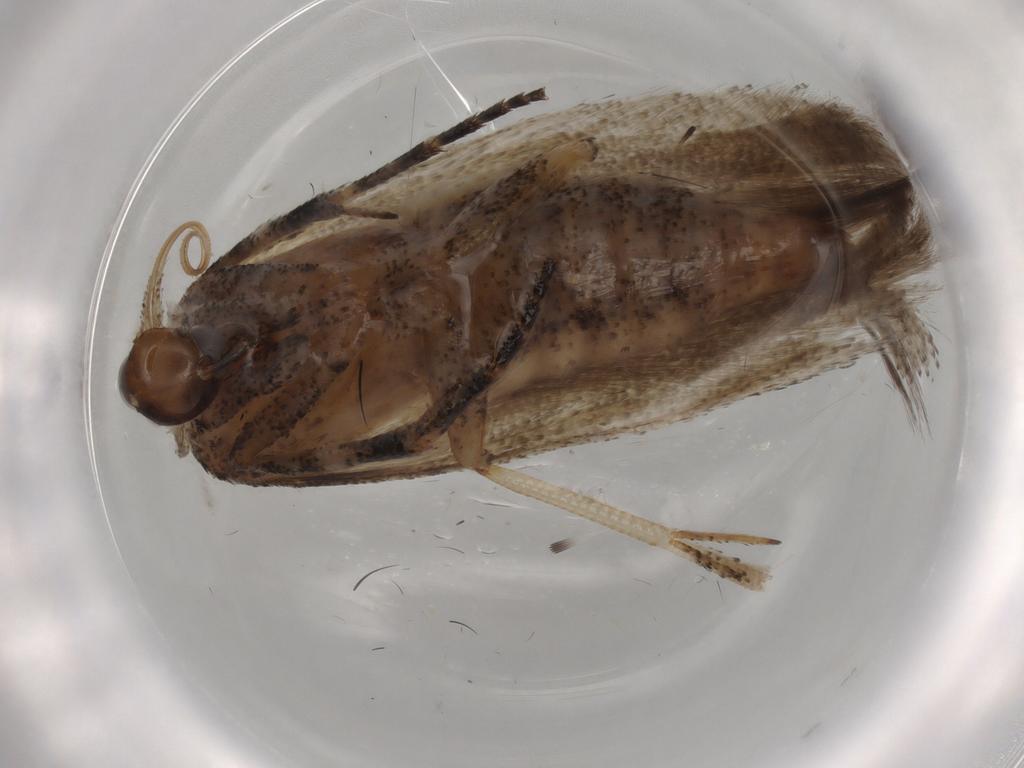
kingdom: Animalia
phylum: Arthropoda
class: Insecta
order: Lepidoptera
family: Gelechiidae
